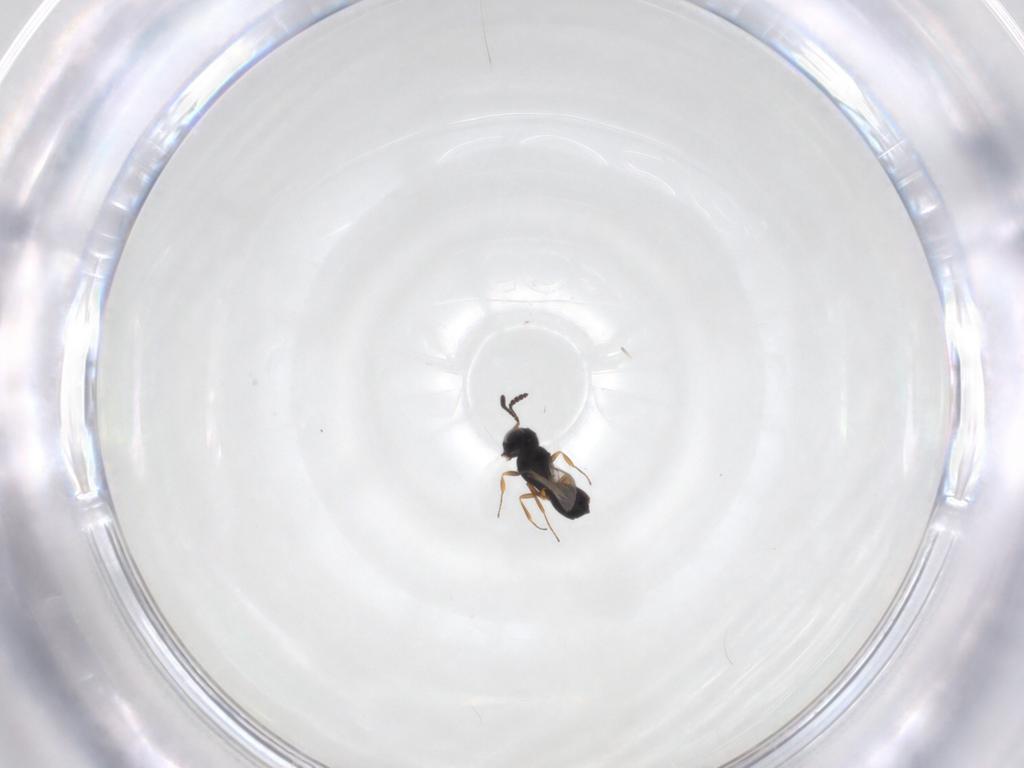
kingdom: Animalia
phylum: Arthropoda
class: Insecta
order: Hymenoptera
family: Scelionidae
